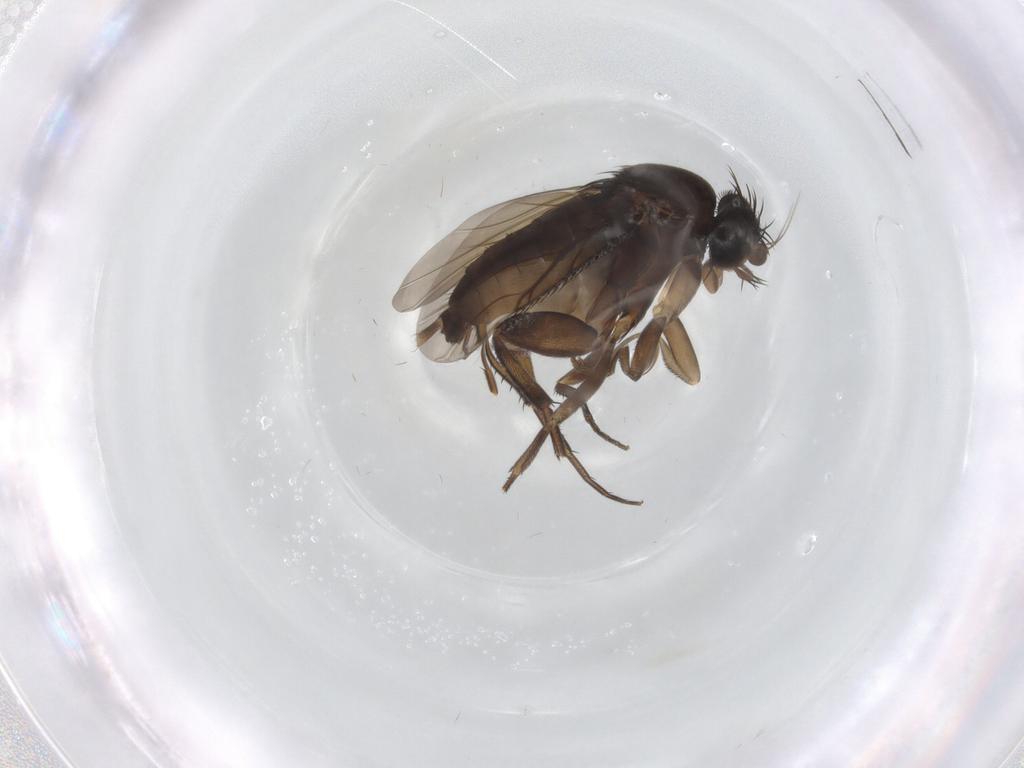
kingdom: Animalia
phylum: Arthropoda
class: Insecta
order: Diptera
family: Phoridae
